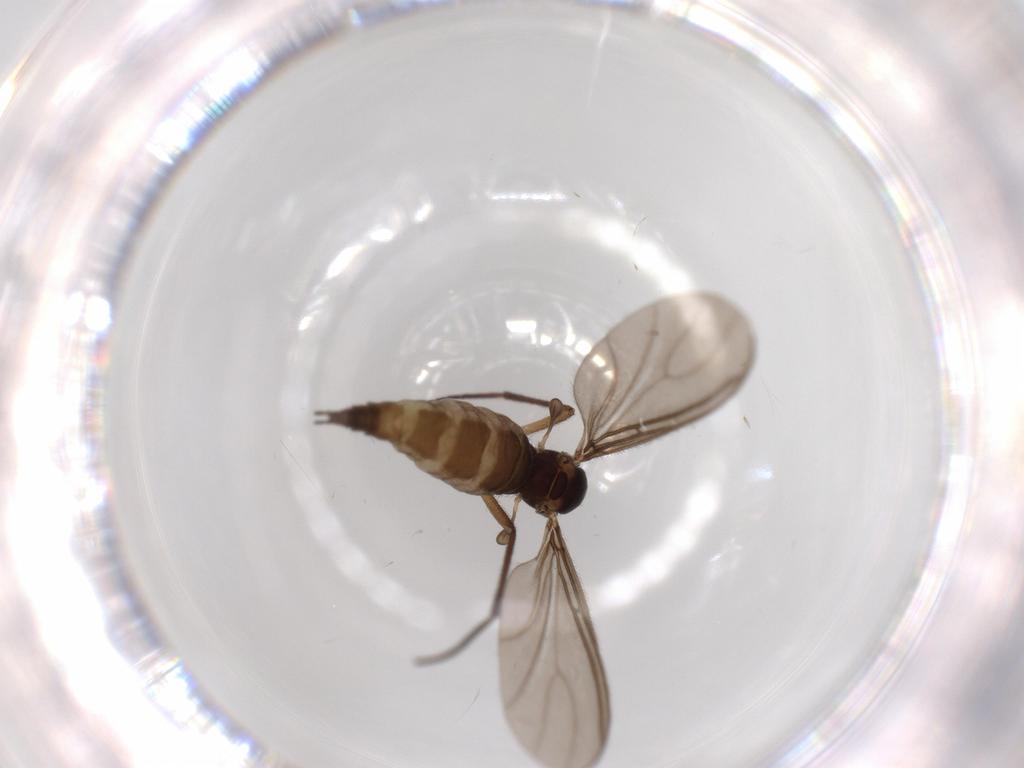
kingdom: Animalia
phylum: Arthropoda
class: Insecta
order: Diptera
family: Sciaridae
